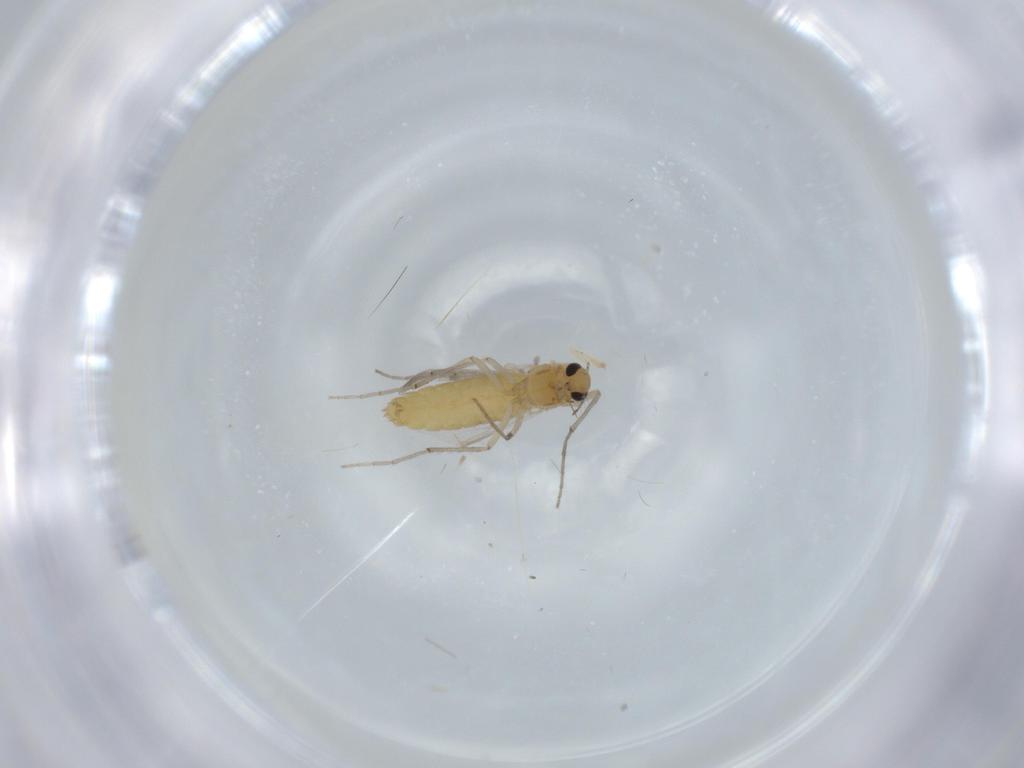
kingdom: Animalia
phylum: Arthropoda
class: Insecta
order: Diptera
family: Chironomidae
